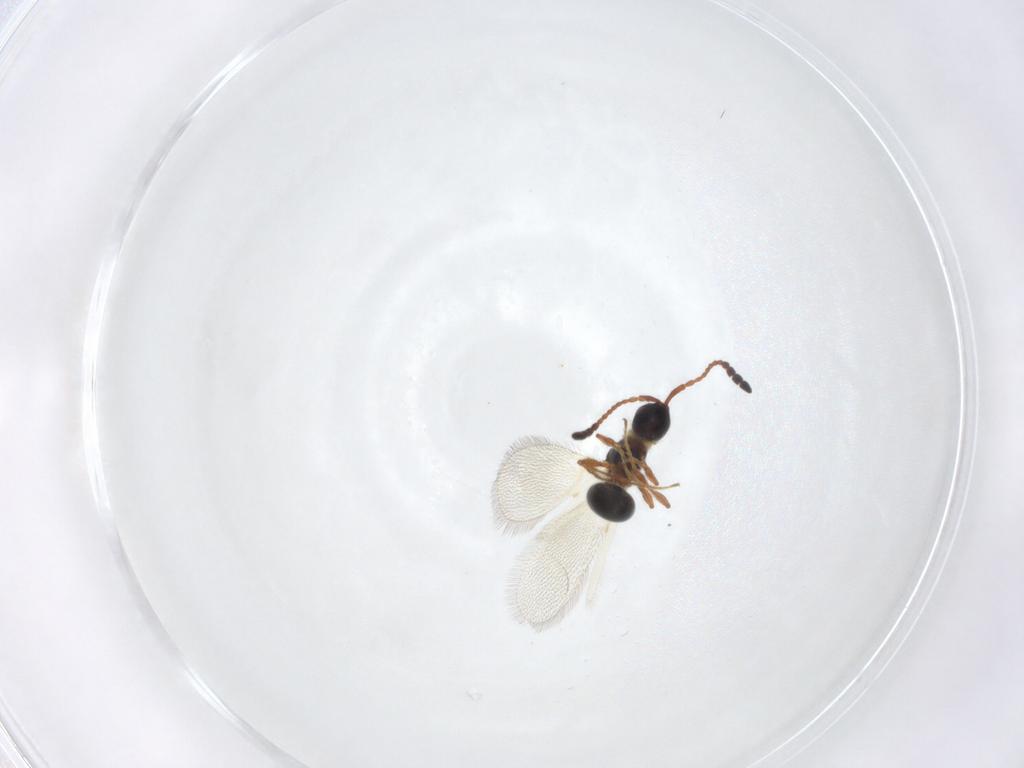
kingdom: Animalia
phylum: Arthropoda
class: Insecta
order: Hymenoptera
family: Diapriidae
